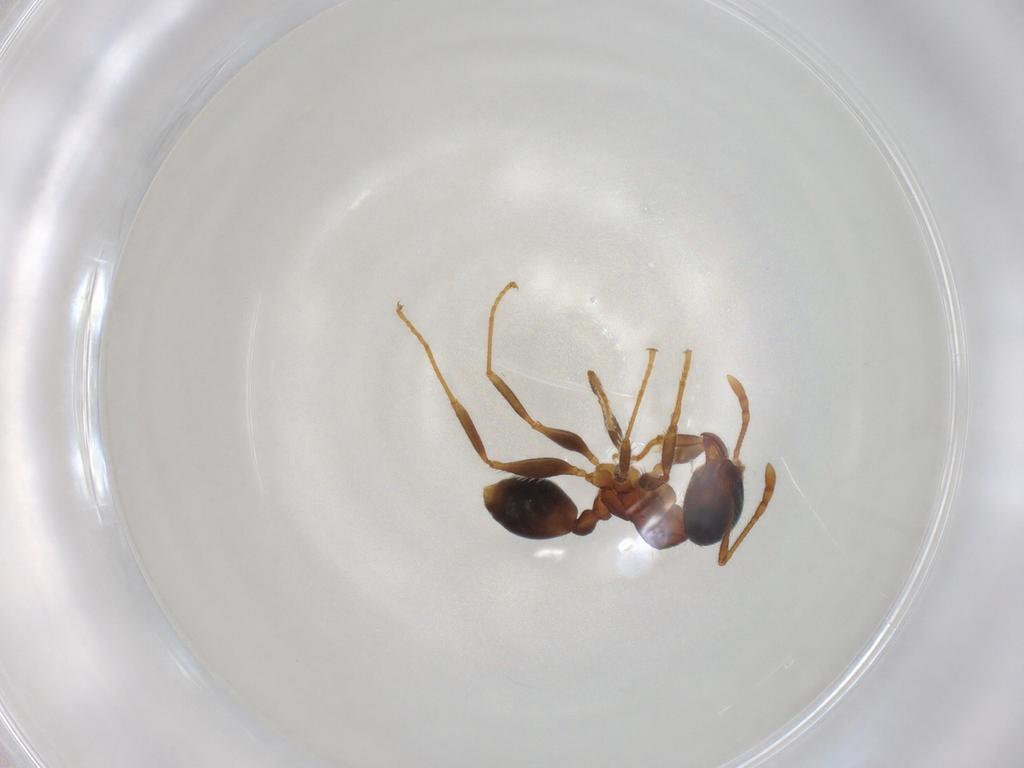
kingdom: Animalia
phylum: Arthropoda
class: Insecta
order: Hymenoptera
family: Formicidae
